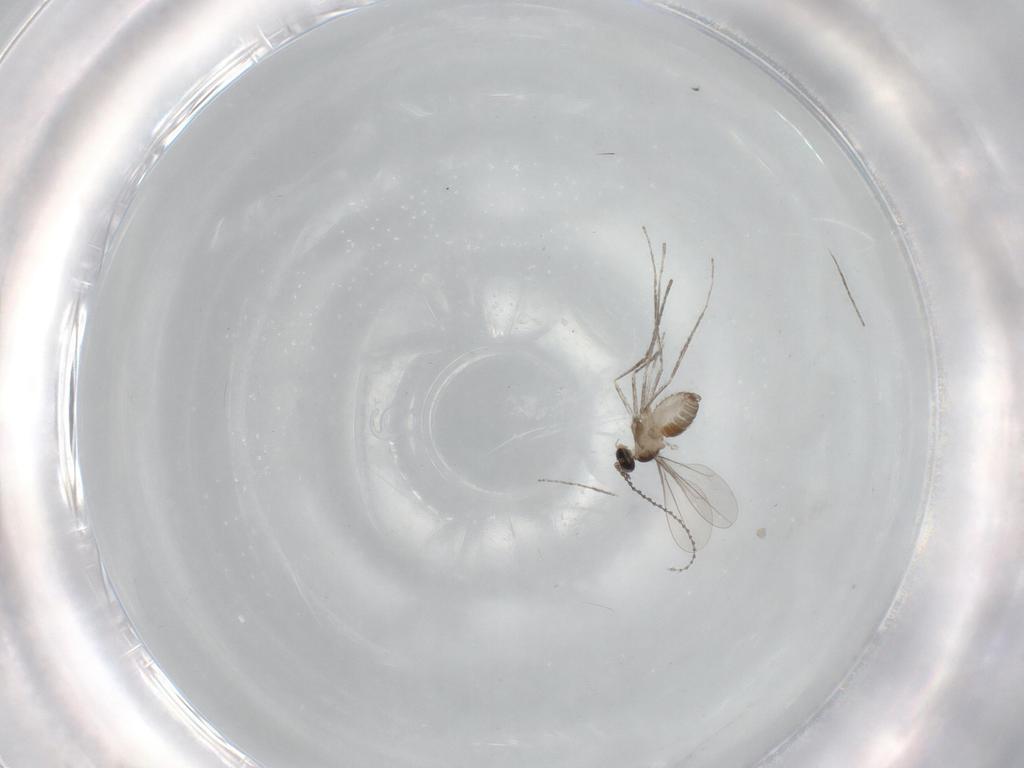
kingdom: Animalia
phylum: Arthropoda
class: Insecta
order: Diptera
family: Cecidomyiidae
